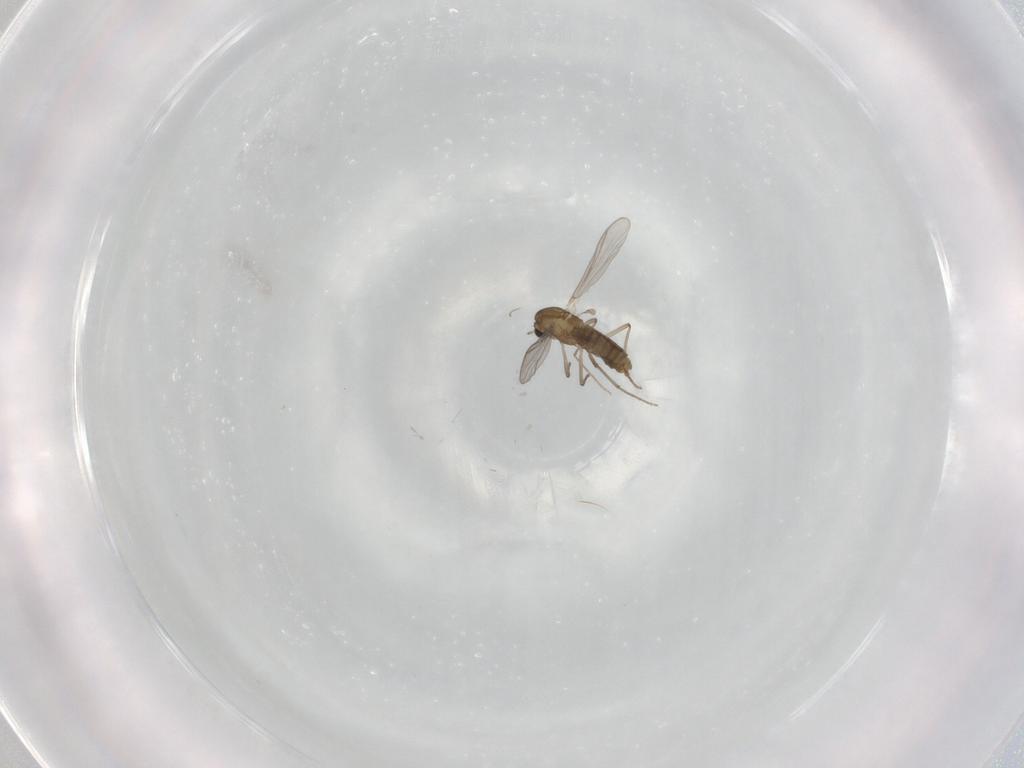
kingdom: Animalia
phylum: Arthropoda
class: Insecta
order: Diptera
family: Chironomidae
